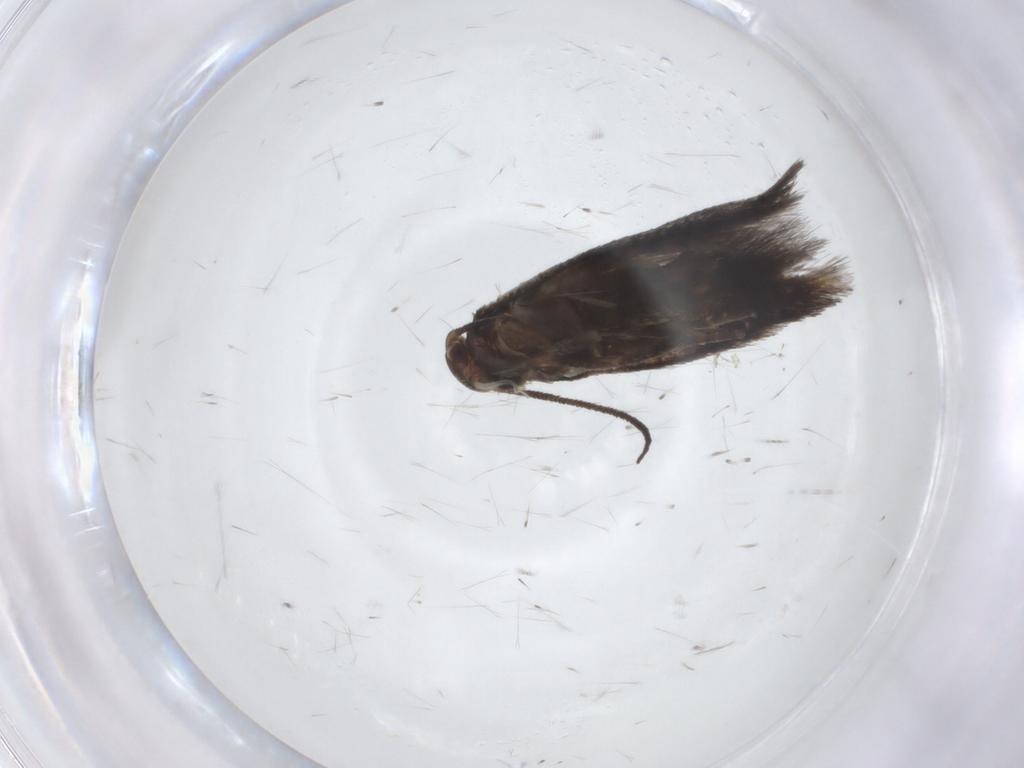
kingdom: Animalia
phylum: Arthropoda
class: Insecta
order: Lepidoptera
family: Elachistidae
